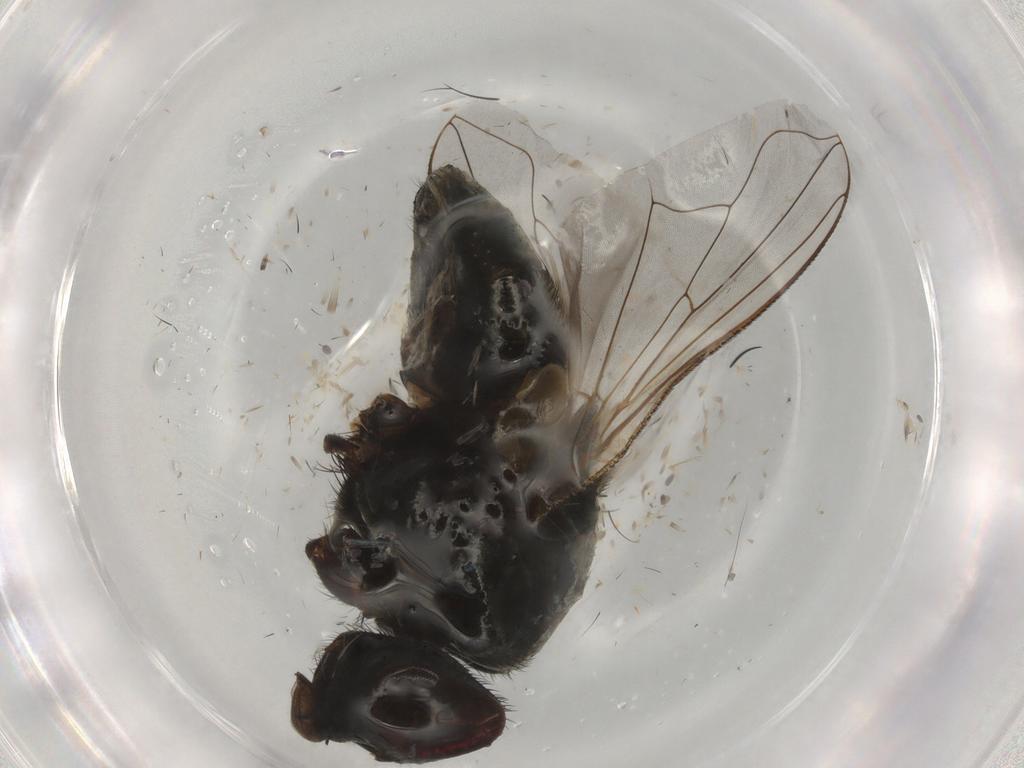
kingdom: Animalia
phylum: Arthropoda
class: Insecta
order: Diptera
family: Muscidae
